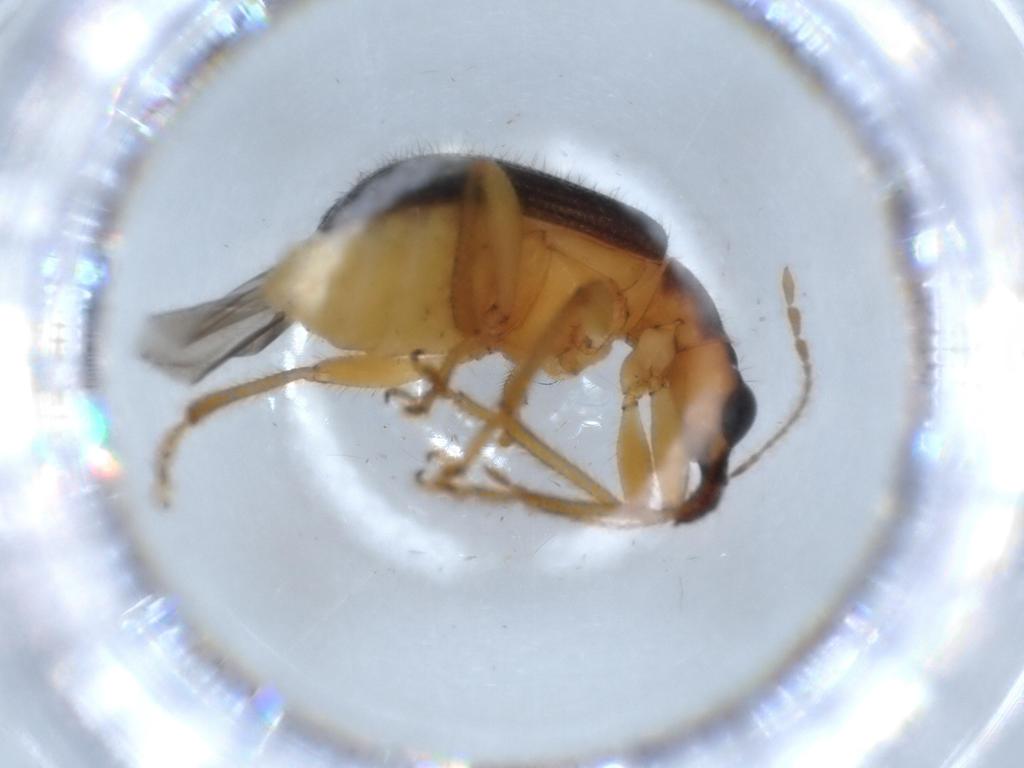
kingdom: Animalia
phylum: Arthropoda
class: Insecta
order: Coleoptera
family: Attelabidae
